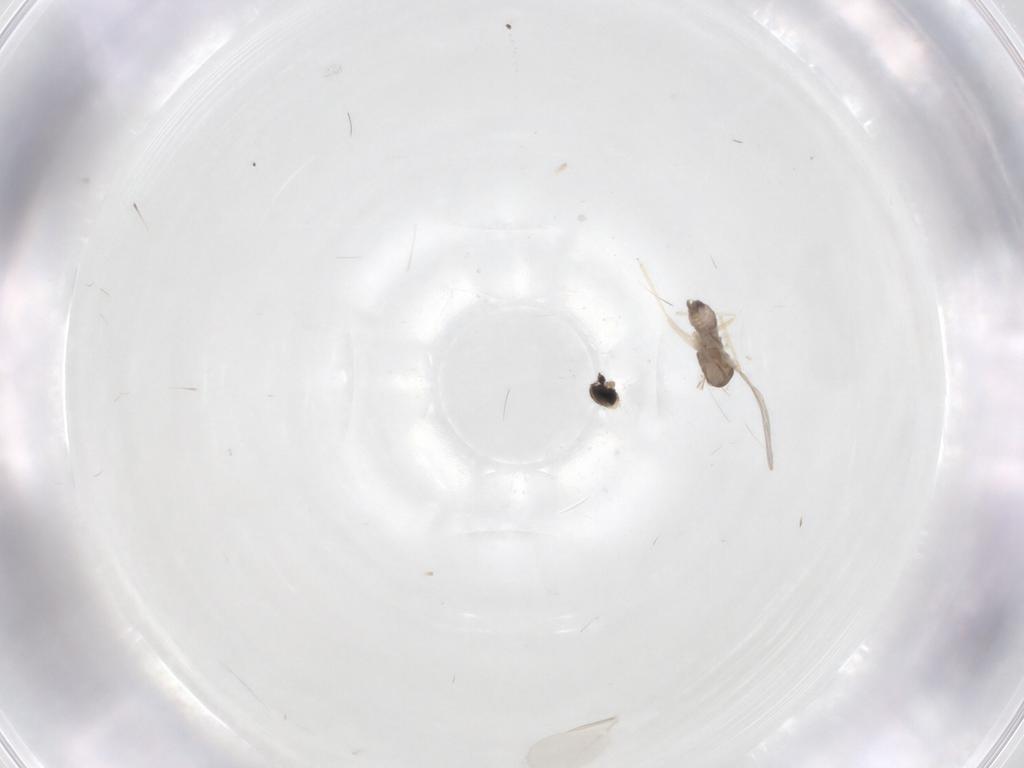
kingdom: Animalia
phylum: Arthropoda
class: Insecta
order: Diptera
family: Cecidomyiidae
